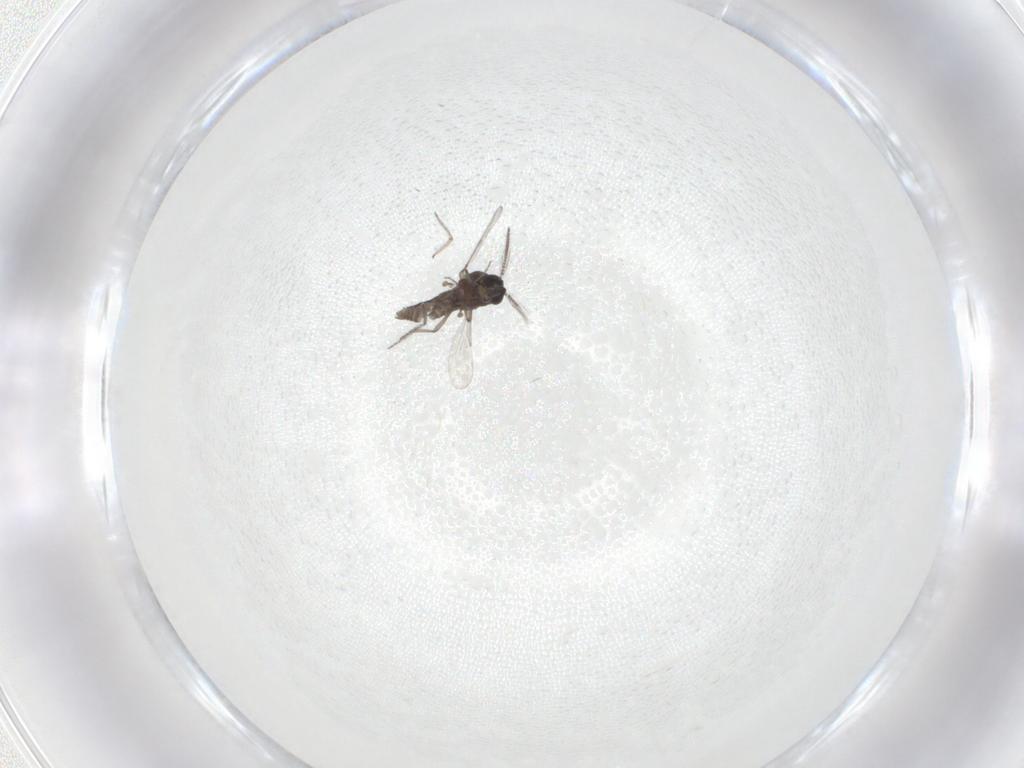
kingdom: Animalia
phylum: Arthropoda
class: Insecta
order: Diptera
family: Ceratopogonidae
